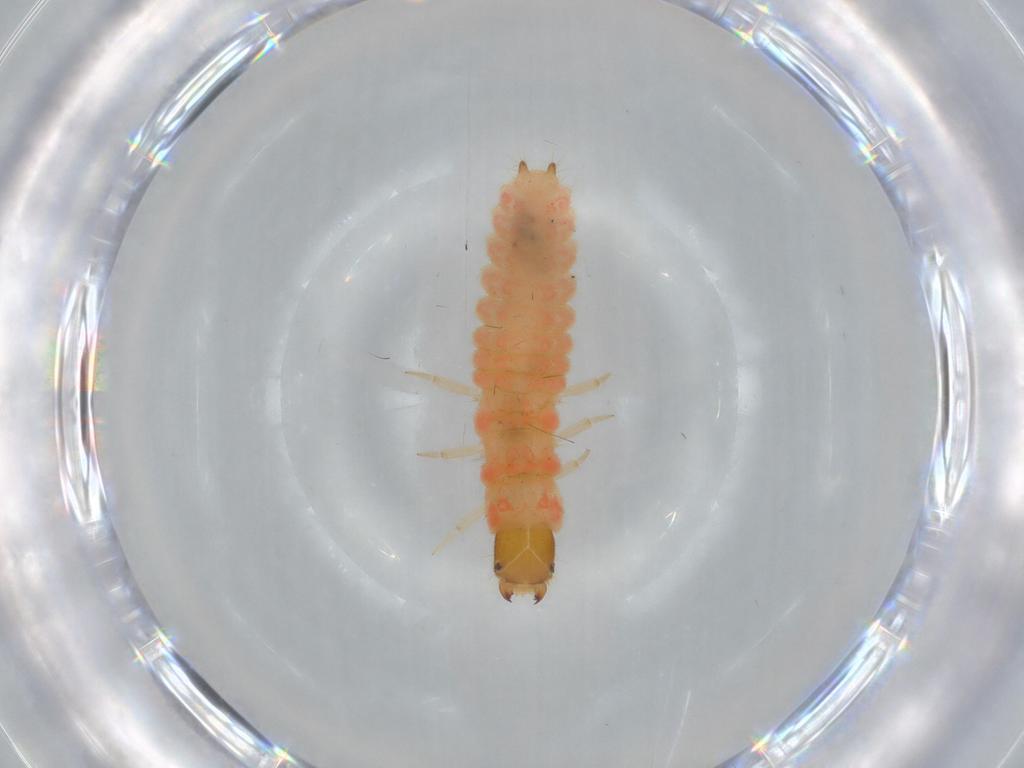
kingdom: Animalia
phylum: Arthropoda
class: Insecta
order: Coleoptera
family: Melyridae
